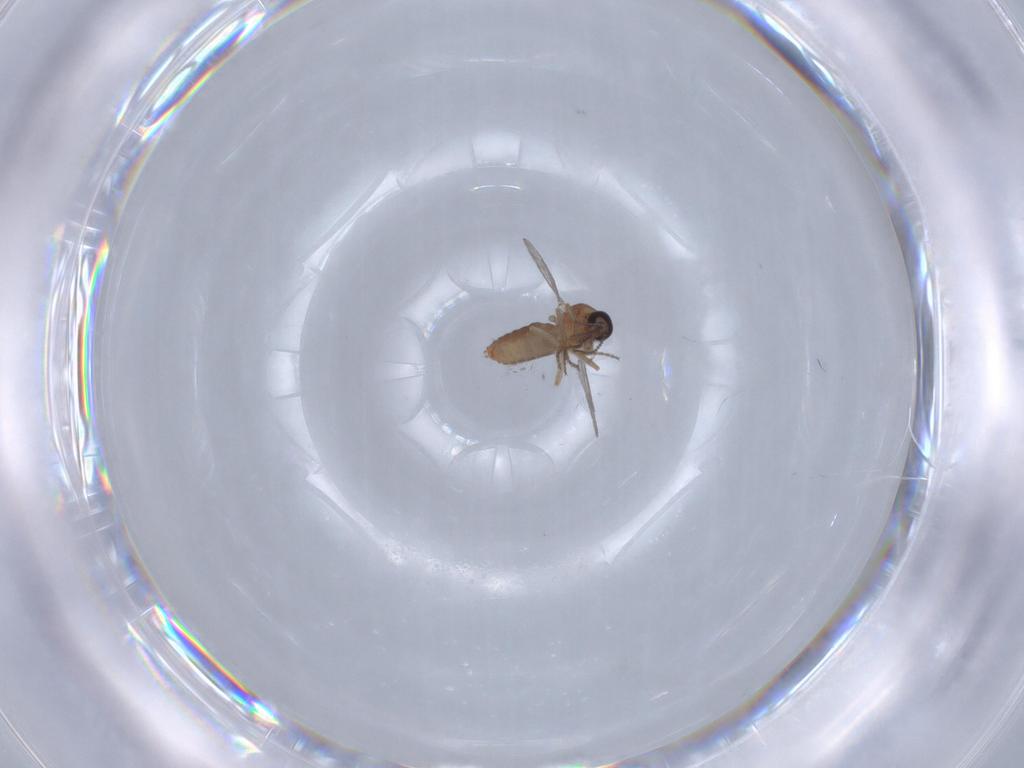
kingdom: Animalia
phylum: Arthropoda
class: Insecta
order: Diptera
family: Ceratopogonidae
